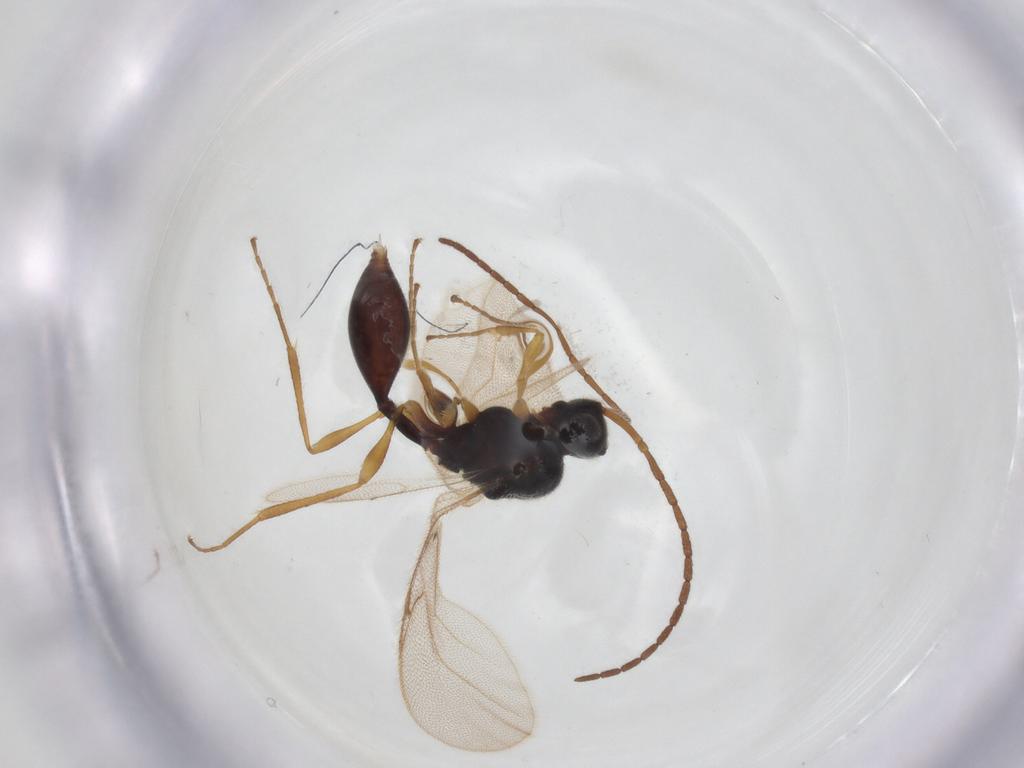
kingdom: Animalia
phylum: Arthropoda
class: Insecta
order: Hymenoptera
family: Diapriidae
